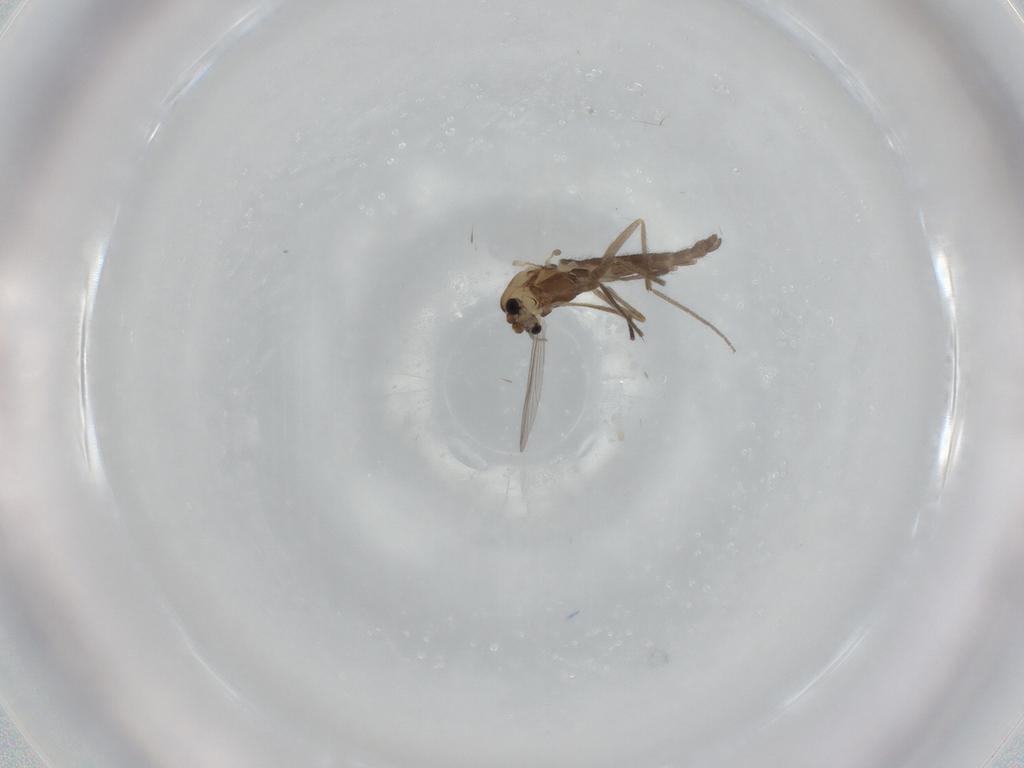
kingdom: Animalia
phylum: Arthropoda
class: Insecta
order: Diptera
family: Chironomidae
